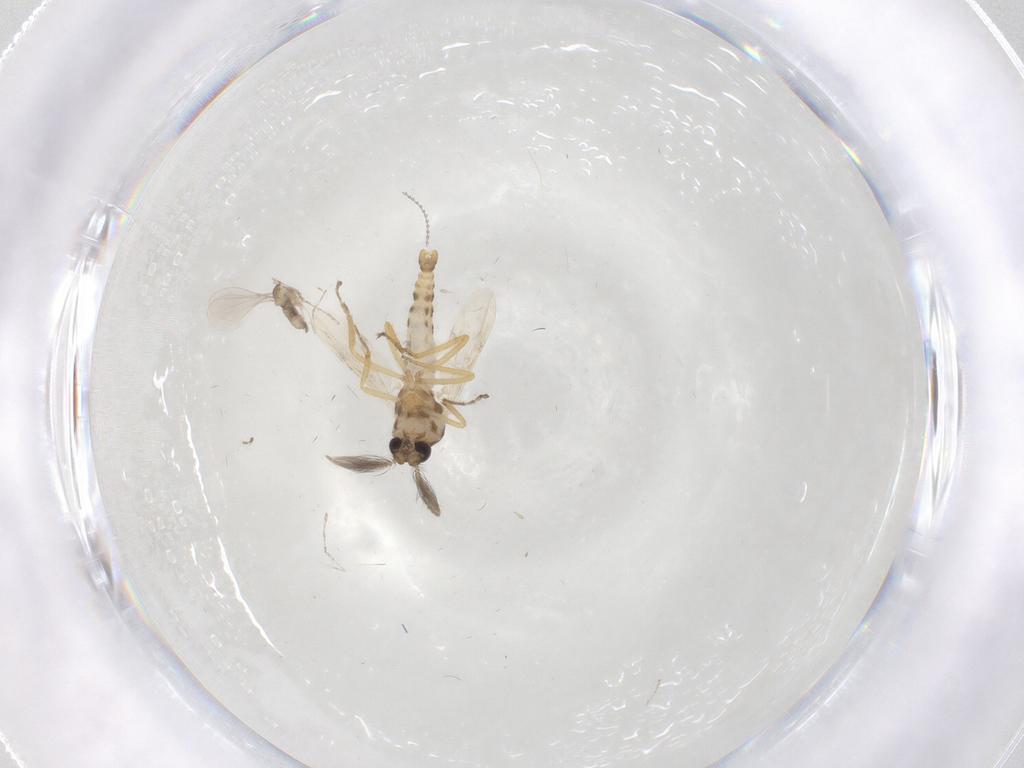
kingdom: Animalia
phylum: Arthropoda
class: Insecta
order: Diptera
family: Ceratopogonidae
